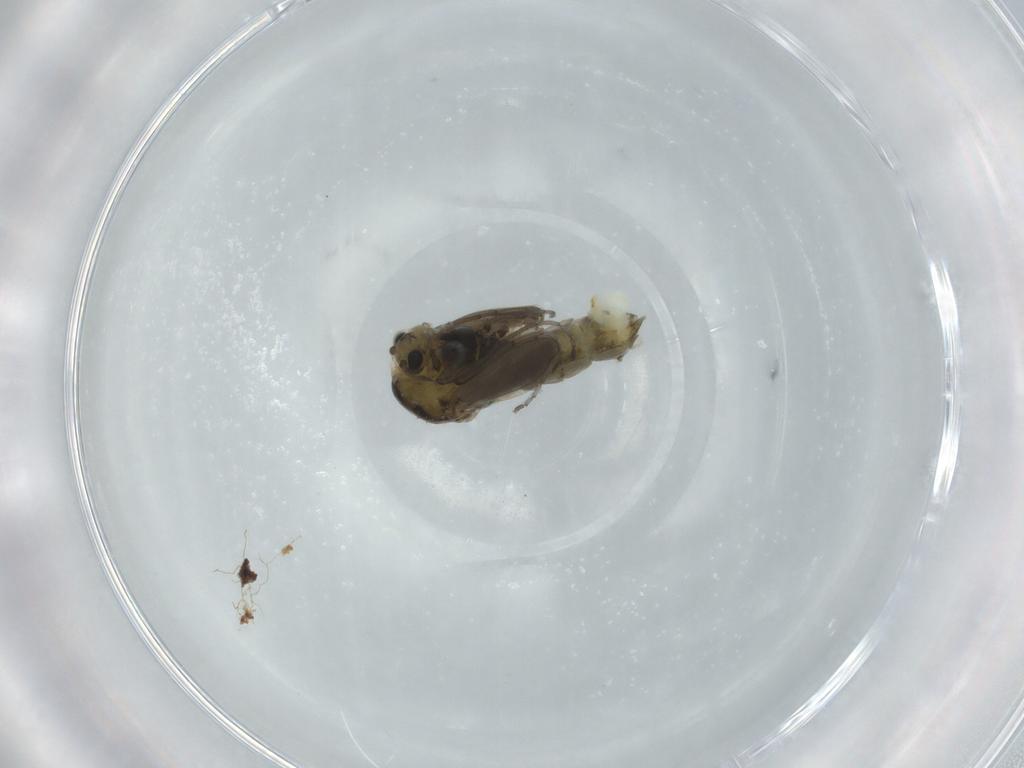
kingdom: Animalia
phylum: Arthropoda
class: Insecta
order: Diptera
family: Chironomidae
